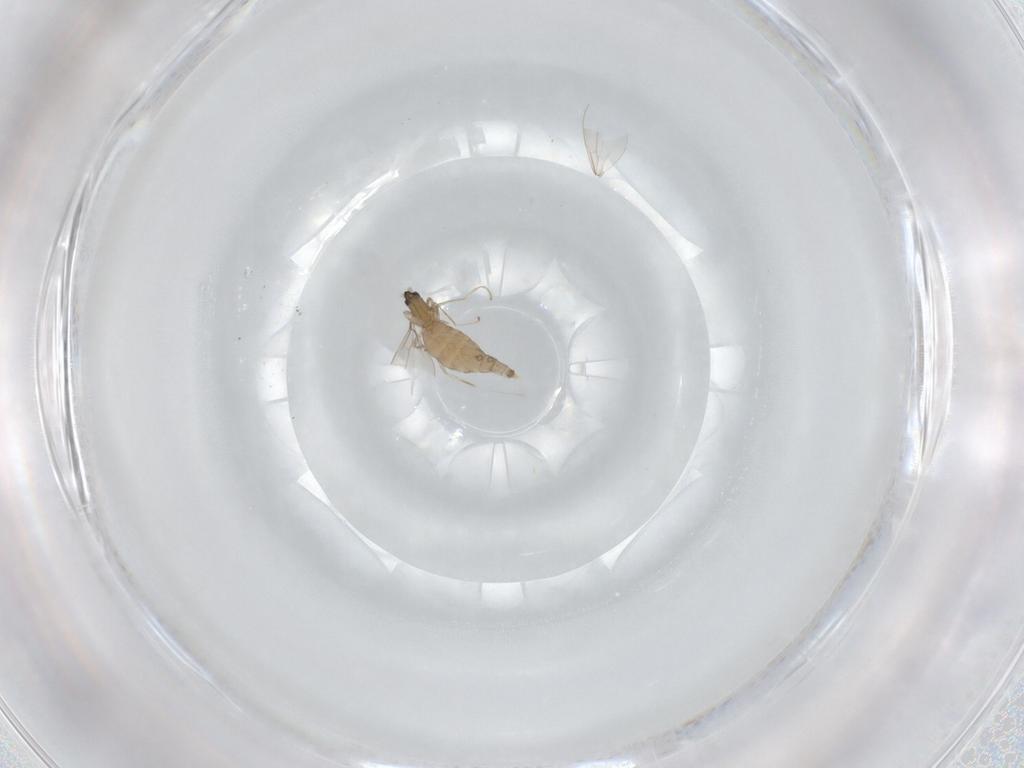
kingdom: Animalia
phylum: Arthropoda
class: Insecta
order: Diptera
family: Cecidomyiidae
